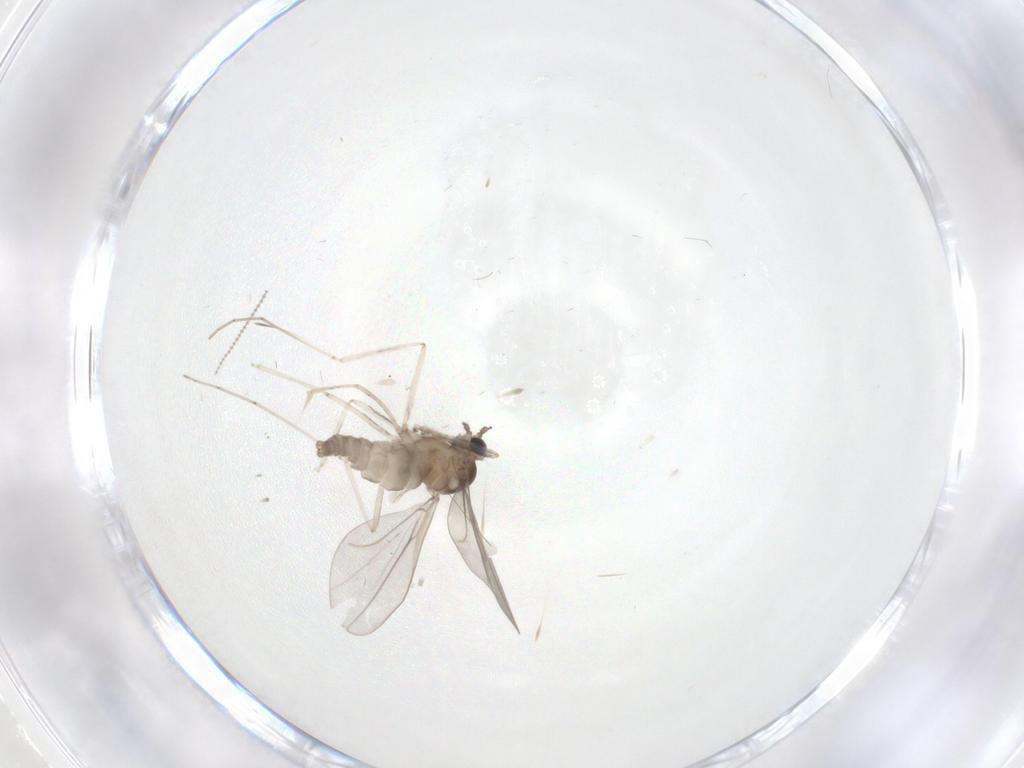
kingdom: Animalia
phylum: Arthropoda
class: Insecta
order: Diptera
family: Cecidomyiidae
